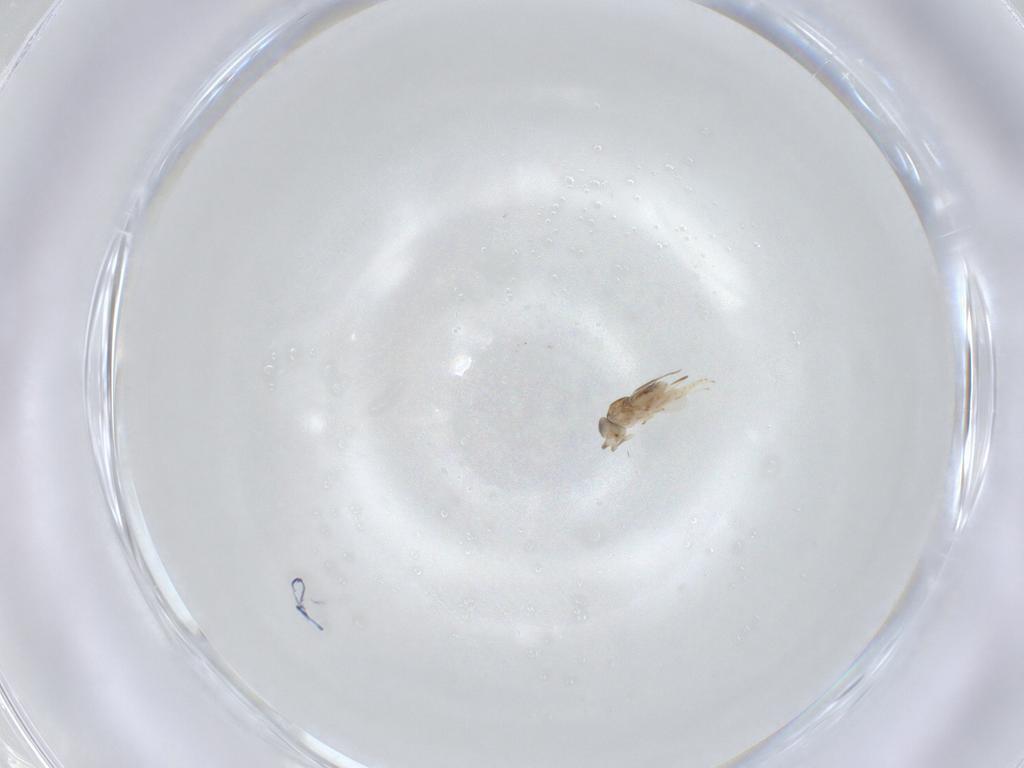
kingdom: Animalia
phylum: Arthropoda
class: Insecta
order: Hymenoptera
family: Encyrtidae
